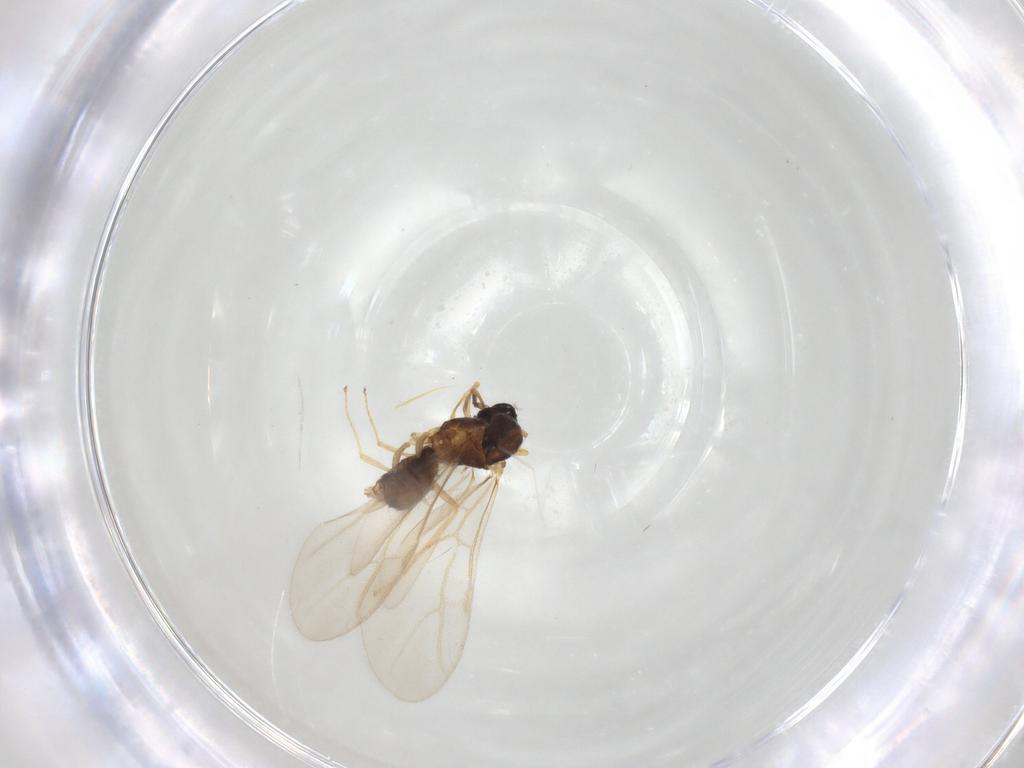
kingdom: Animalia
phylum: Arthropoda
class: Insecta
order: Hymenoptera
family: Formicidae
